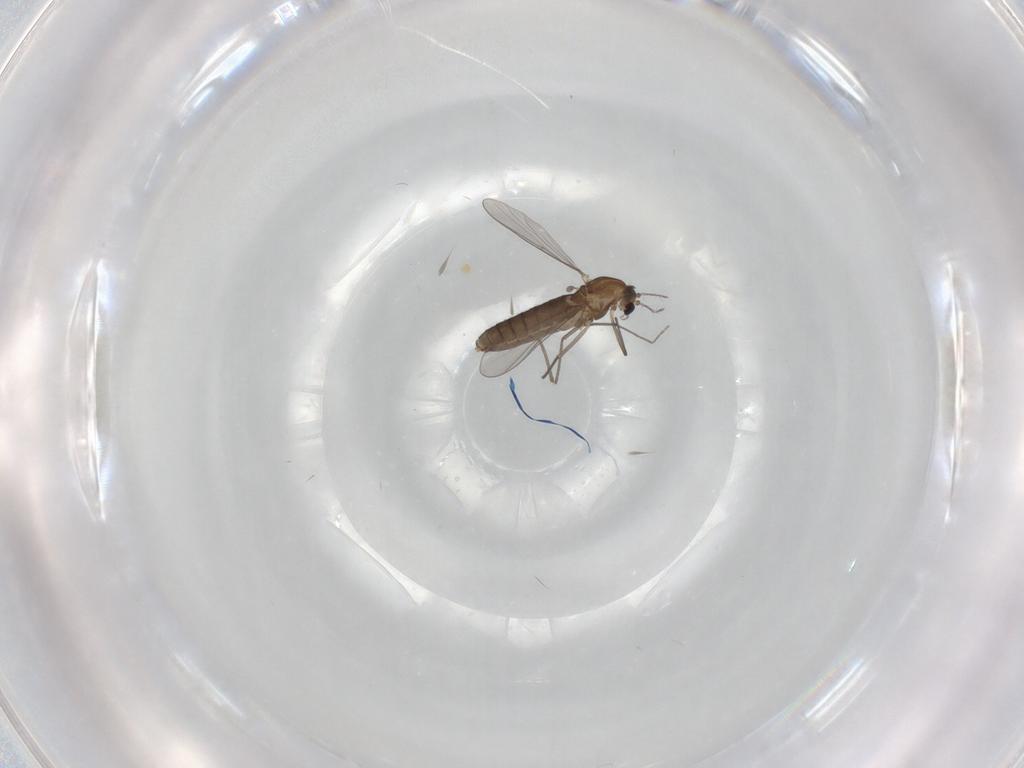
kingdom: Animalia
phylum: Arthropoda
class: Insecta
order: Diptera
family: Chironomidae
